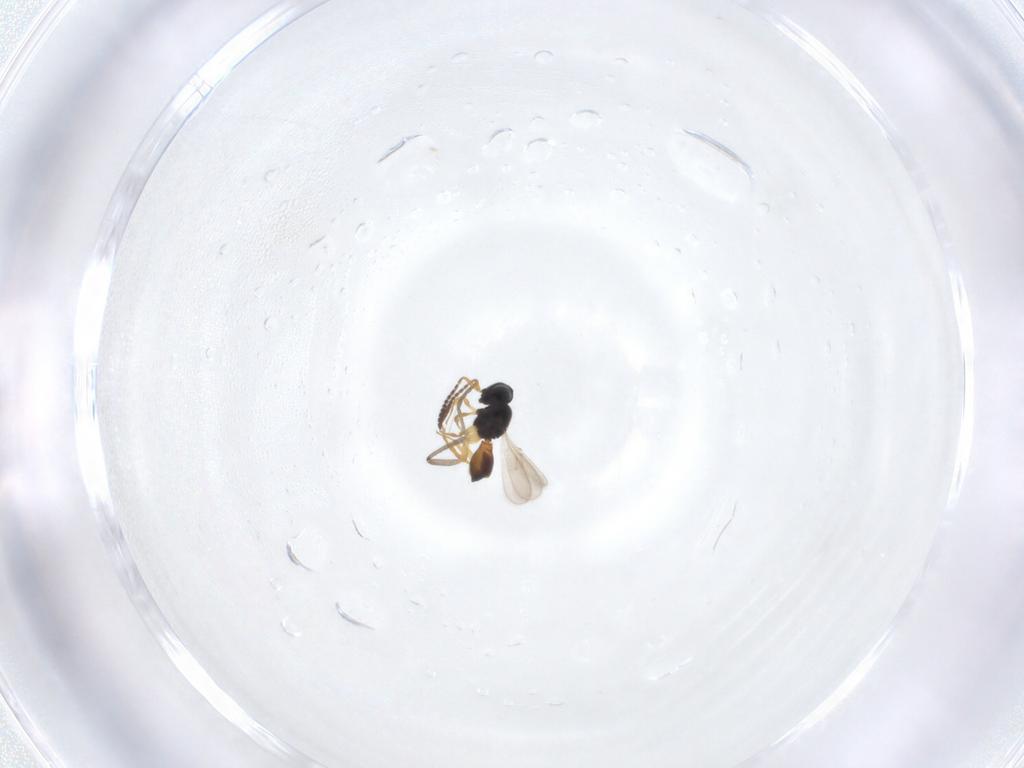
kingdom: Animalia
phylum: Arthropoda
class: Insecta
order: Hymenoptera
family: Scelionidae
